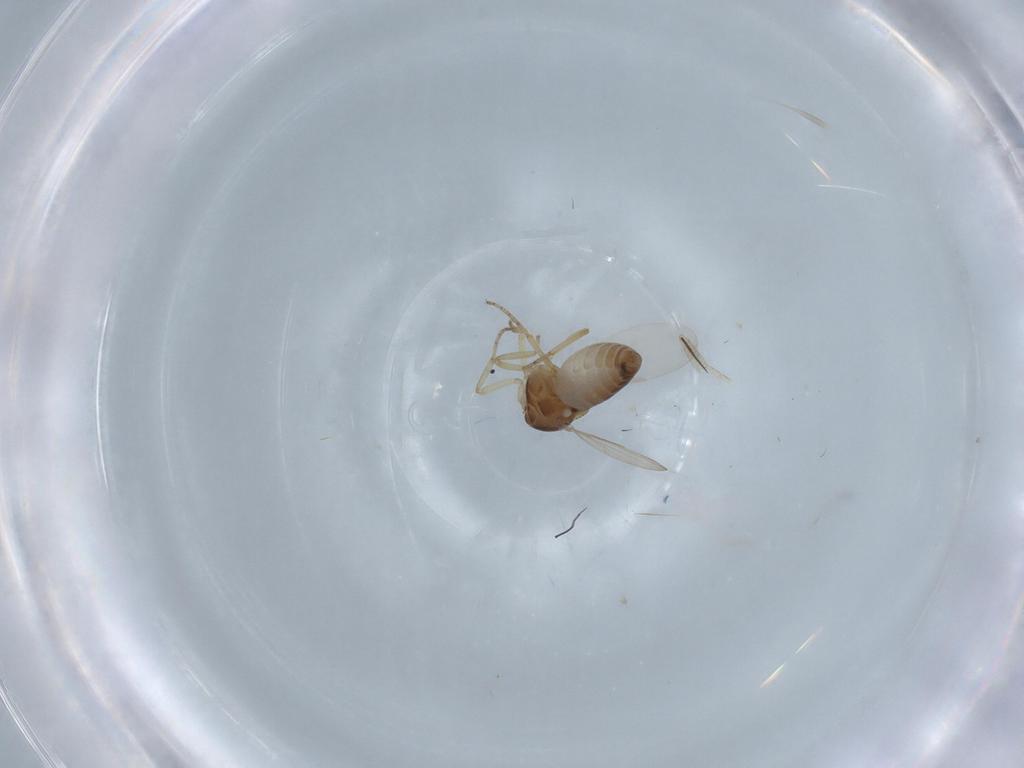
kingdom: Animalia
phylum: Arthropoda
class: Insecta
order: Diptera
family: Ceratopogonidae
